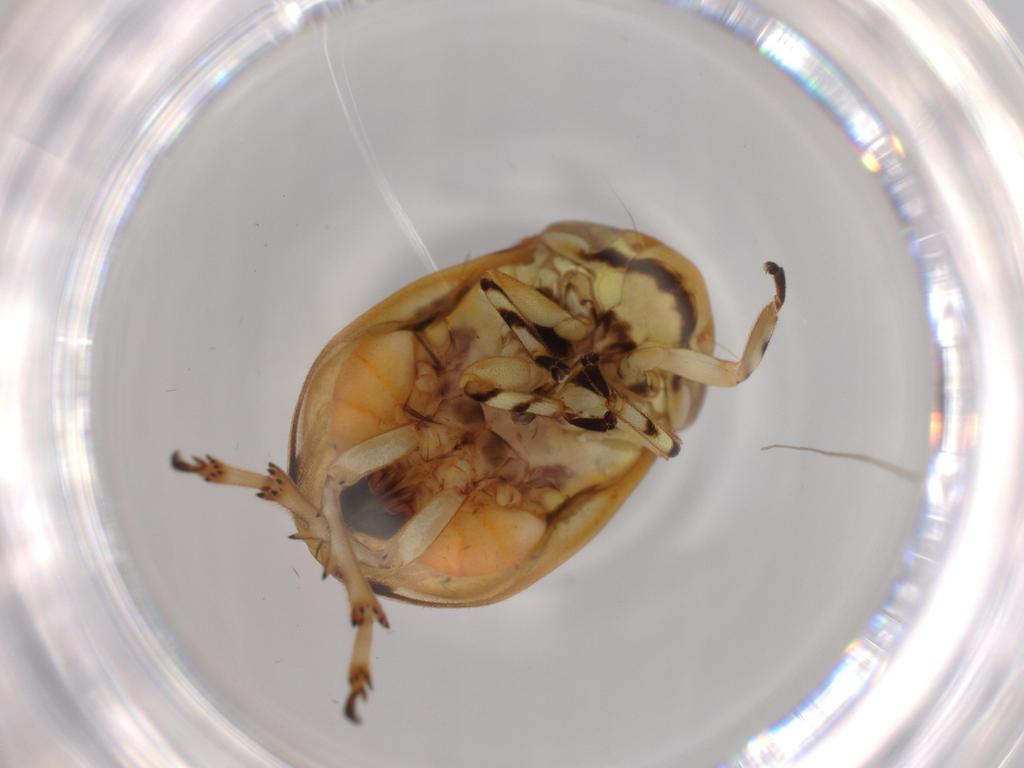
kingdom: Animalia
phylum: Arthropoda
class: Insecta
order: Hemiptera
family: Clastopteridae
